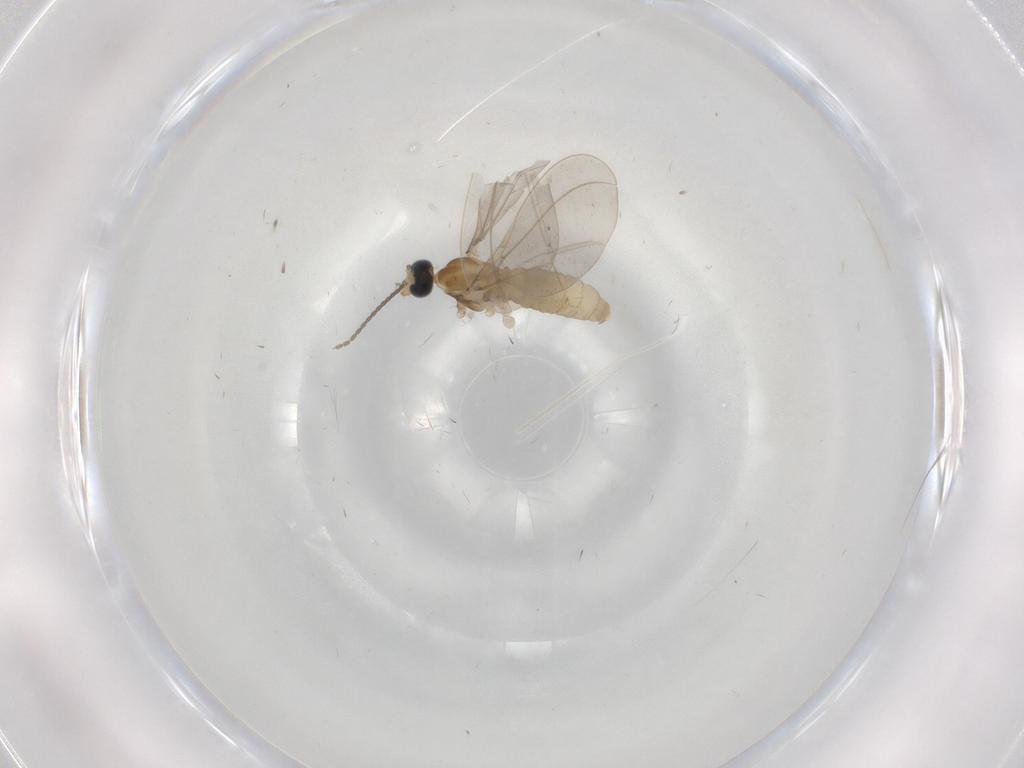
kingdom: Animalia
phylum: Arthropoda
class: Insecta
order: Diptera
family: Cecidomyiidae
